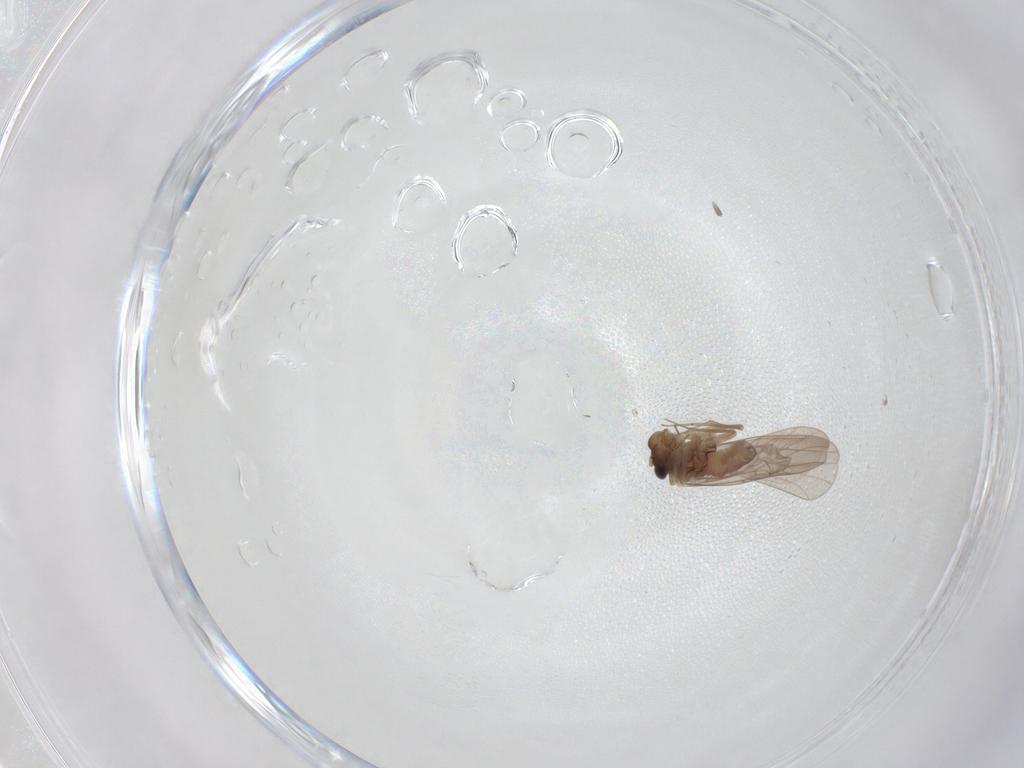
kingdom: Animalia
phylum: Arthropoda
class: Insecta
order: Psocodea
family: Lepidopsocidae
